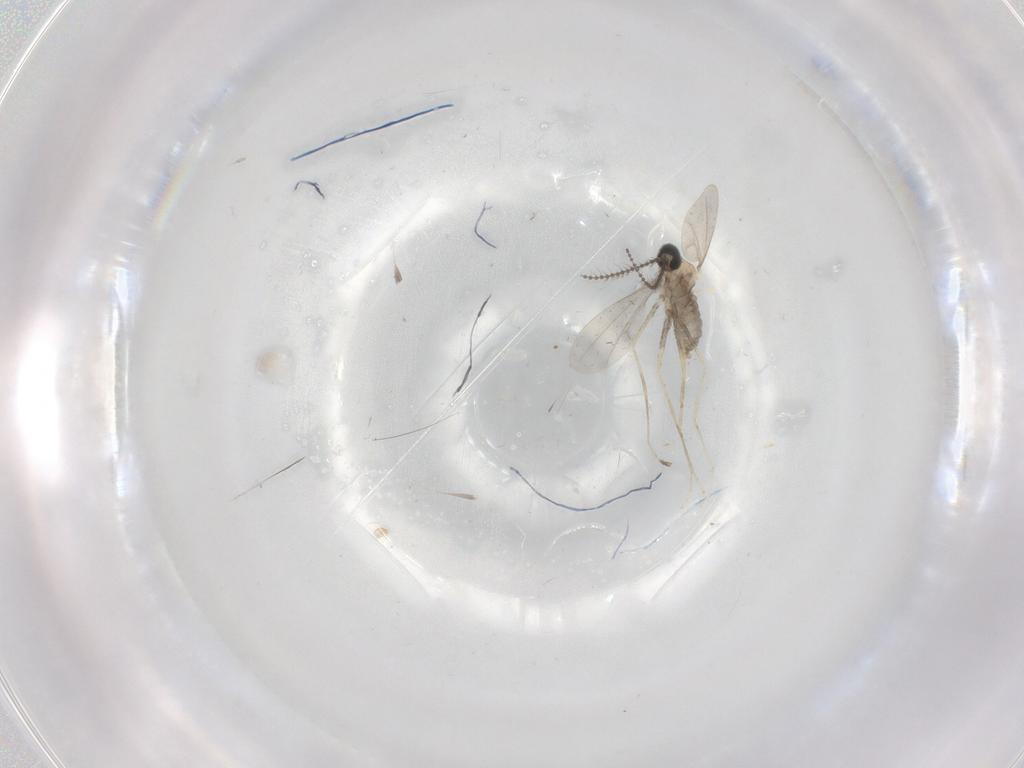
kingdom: Animalia
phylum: Arthropoda
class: Insecta
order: Diptera
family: Cecidomyiidae
